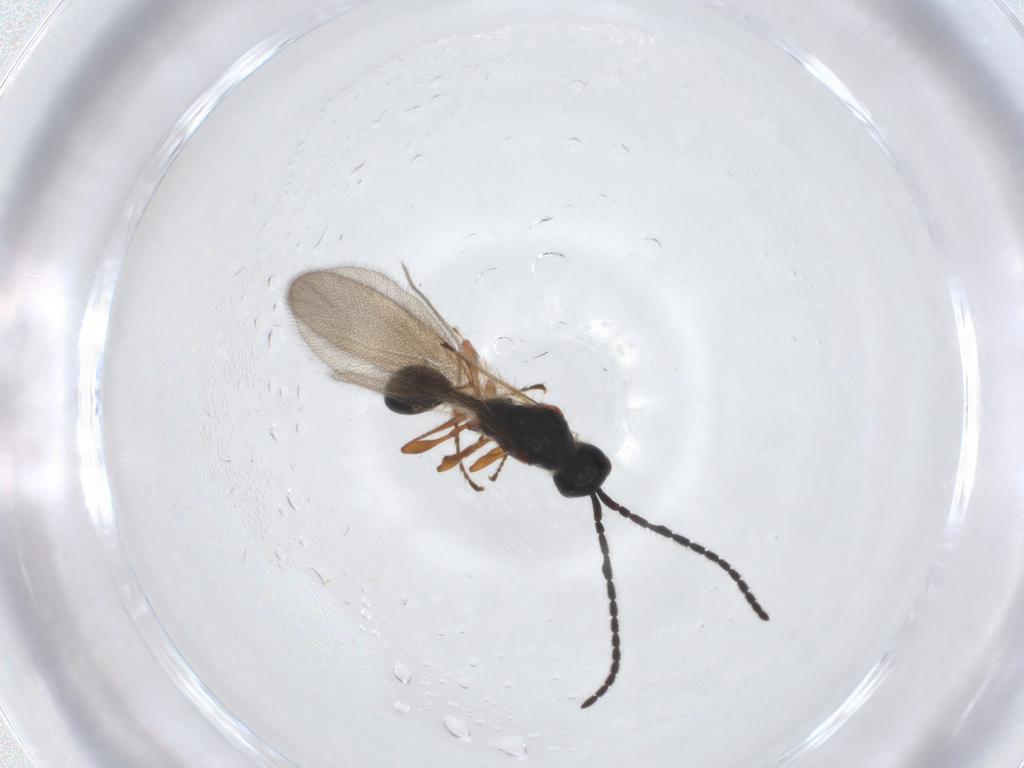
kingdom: Animalia
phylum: Arthropoda
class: Insecta
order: Hymenoptera
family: Diapriidae
